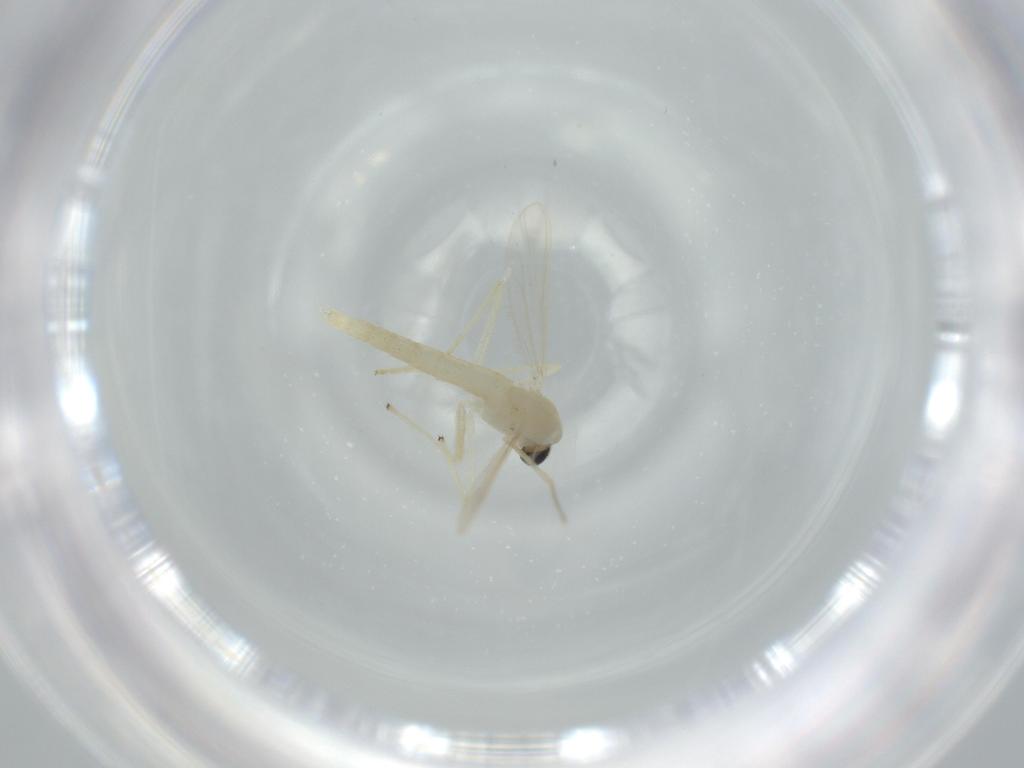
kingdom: Animalia
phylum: Arthropoda
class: Insecta
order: Diptera
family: Chironomidae
